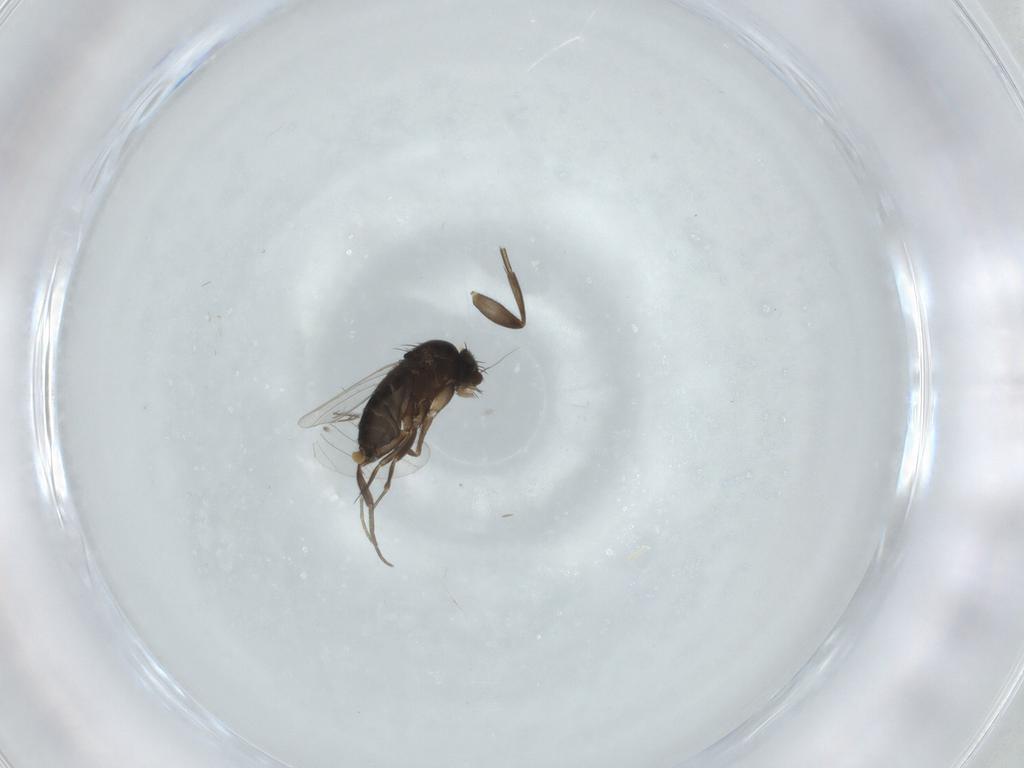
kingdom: Animalia
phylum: Arthropoda
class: Insecta
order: Diptera
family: Phoridae
